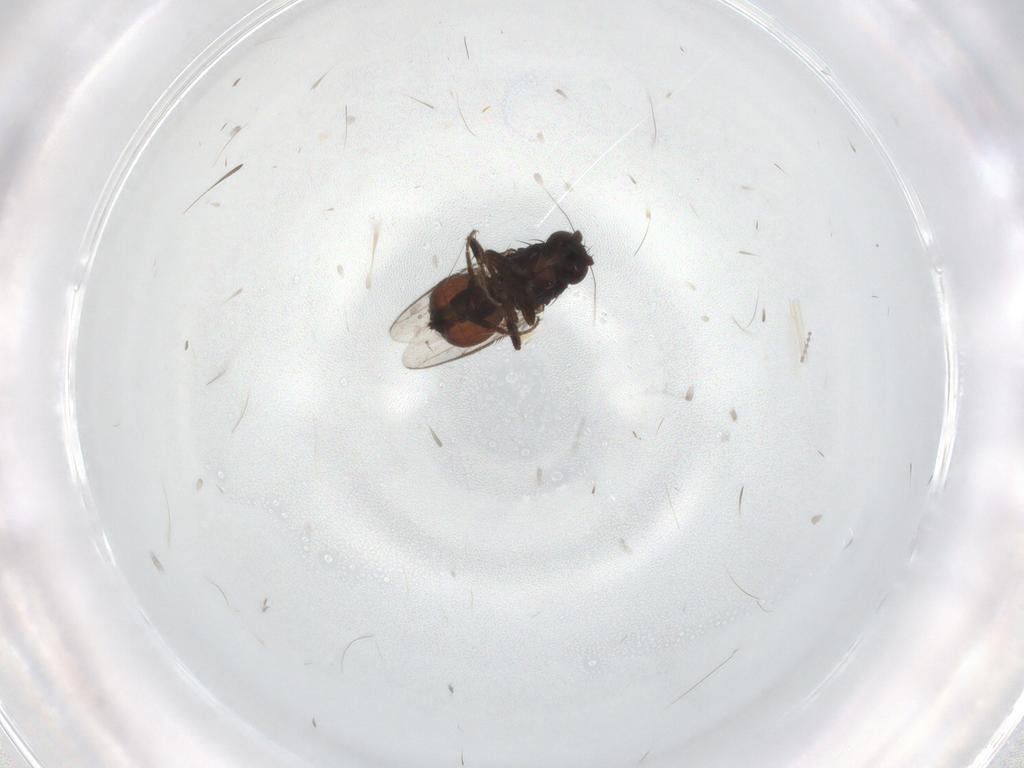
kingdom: Animalia
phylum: Arthropoda
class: Insecta
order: Diptera
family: Sphaeroceridae
